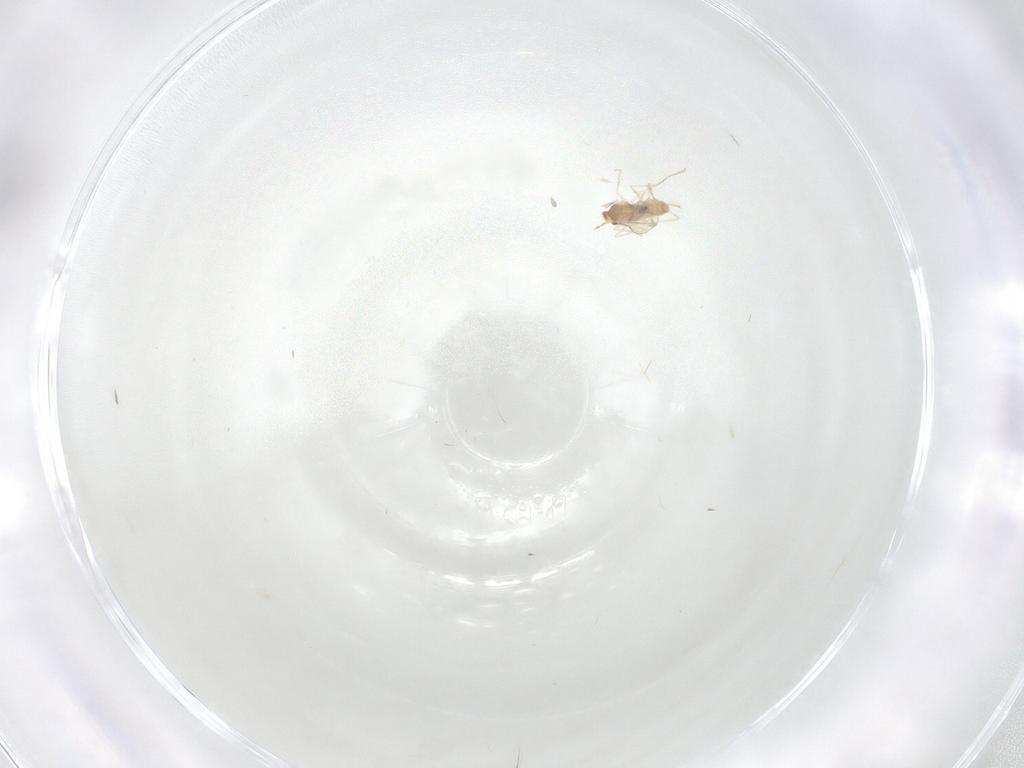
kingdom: Animalia
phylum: Arthropoda
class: Insecta
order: Diptera
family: Cecidomyiidae
